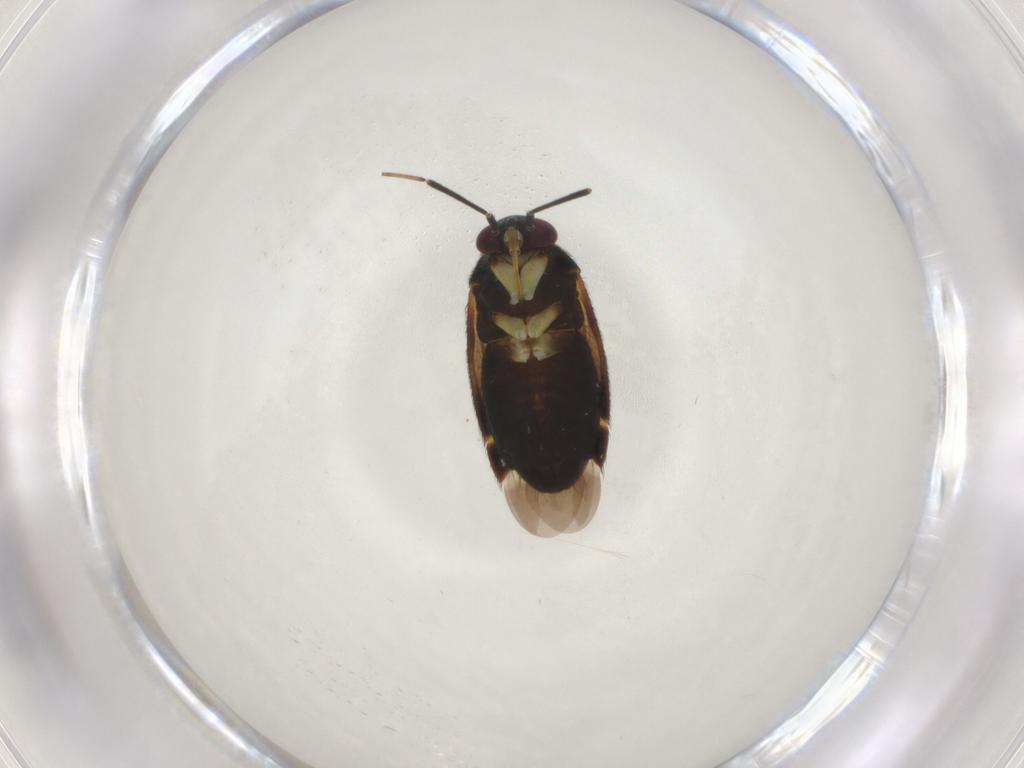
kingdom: Animalia
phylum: Arthropoda
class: Insecta
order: Hemiptera
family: Miridae
